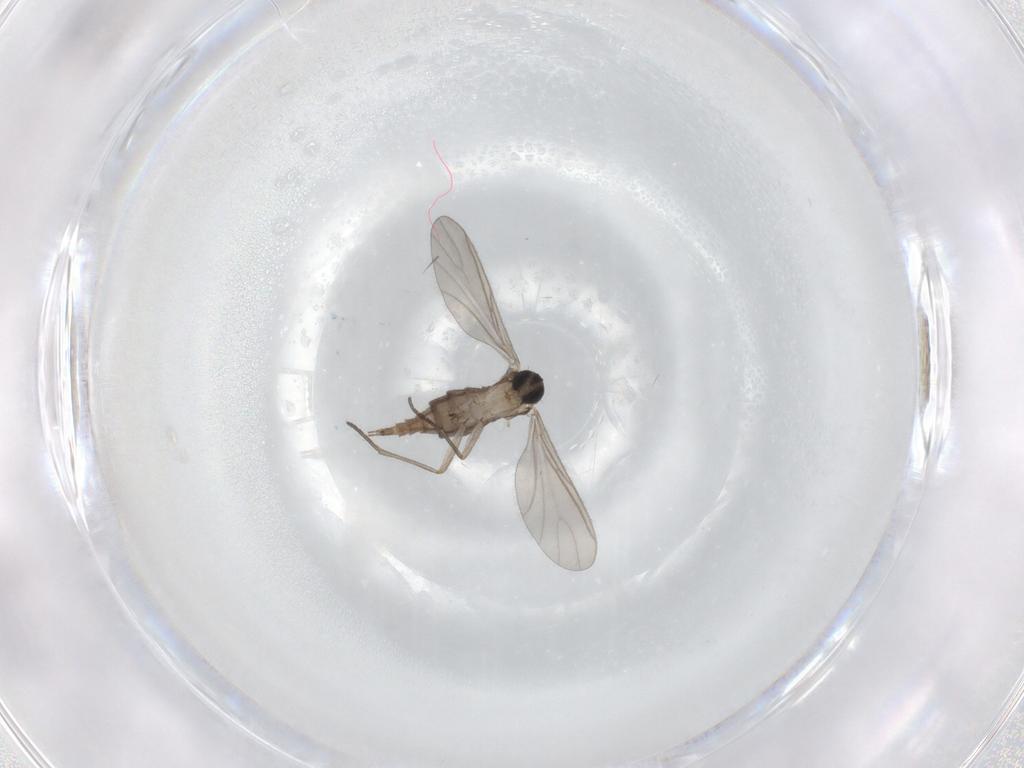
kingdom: Animalia
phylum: Arthropoda
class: Insecta
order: Diptera
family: Sciaridae
